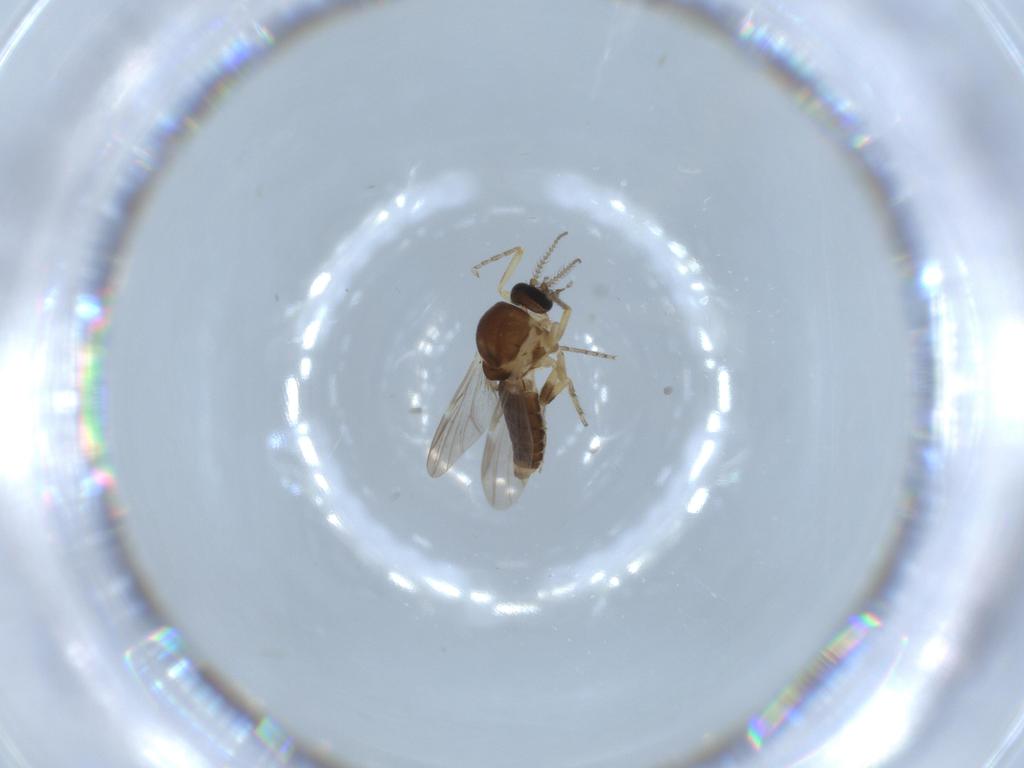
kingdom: Animalia
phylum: Arthropoda
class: Insecta
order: Diptera
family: Ceratopogonidae
